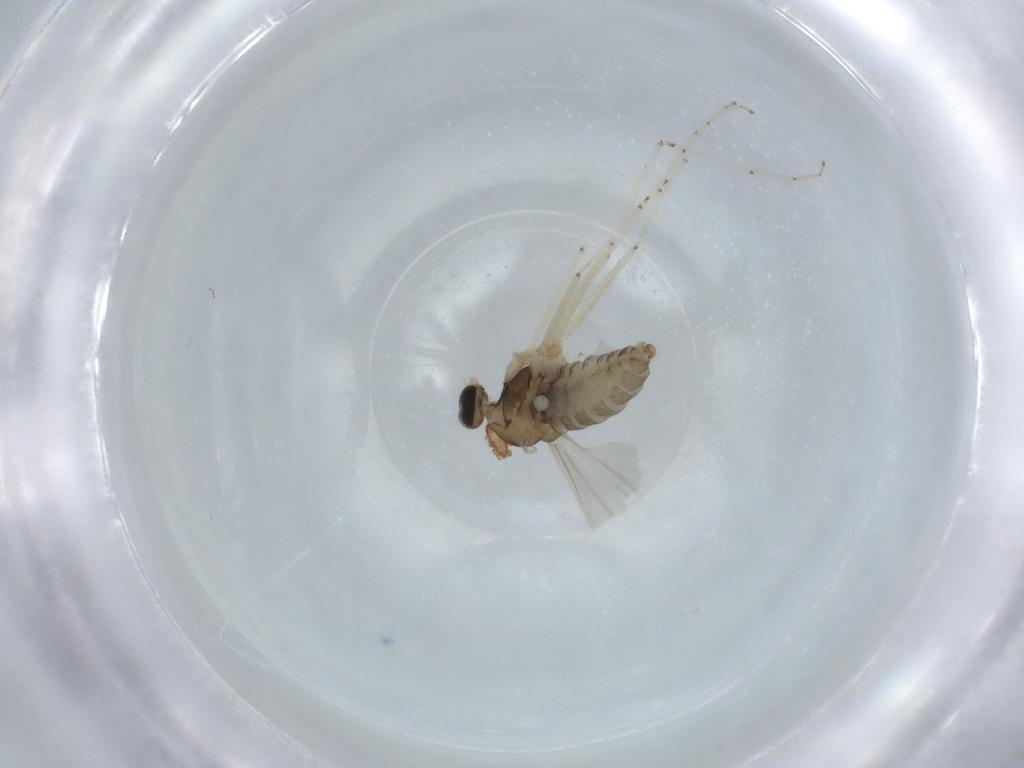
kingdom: Animalia
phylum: Arthropoda
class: Insecta
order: Diptera
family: Cecidomyiidae
